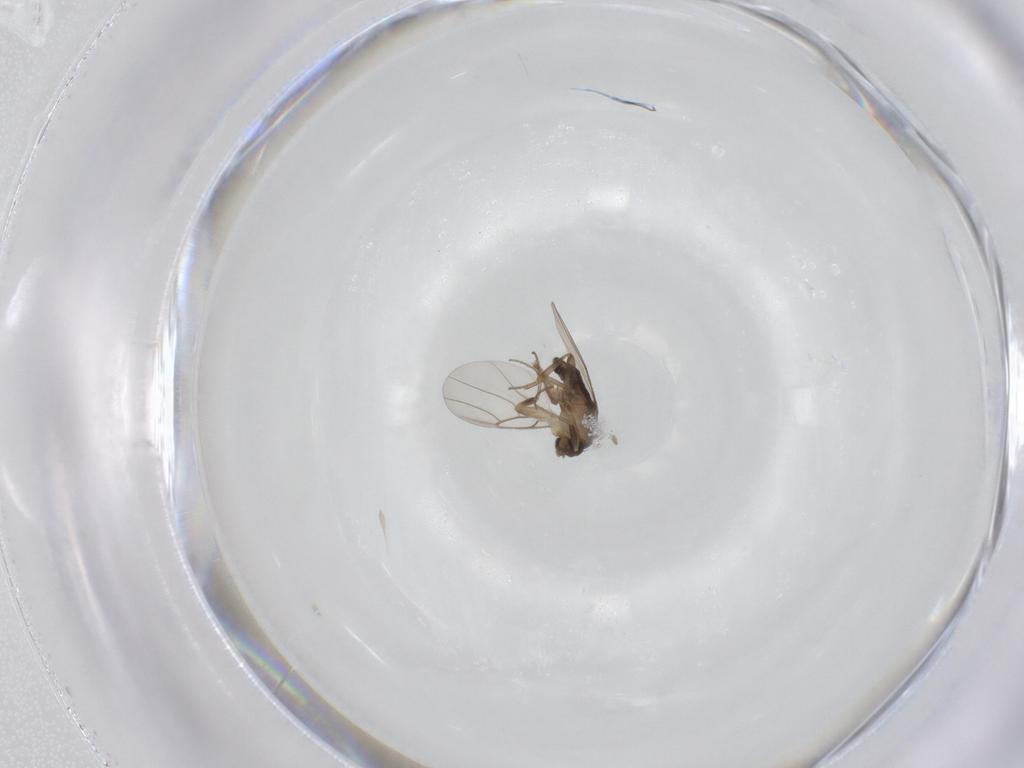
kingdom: Animalia
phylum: Arthropoda
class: Insecta
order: Diptera
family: Phoridae
